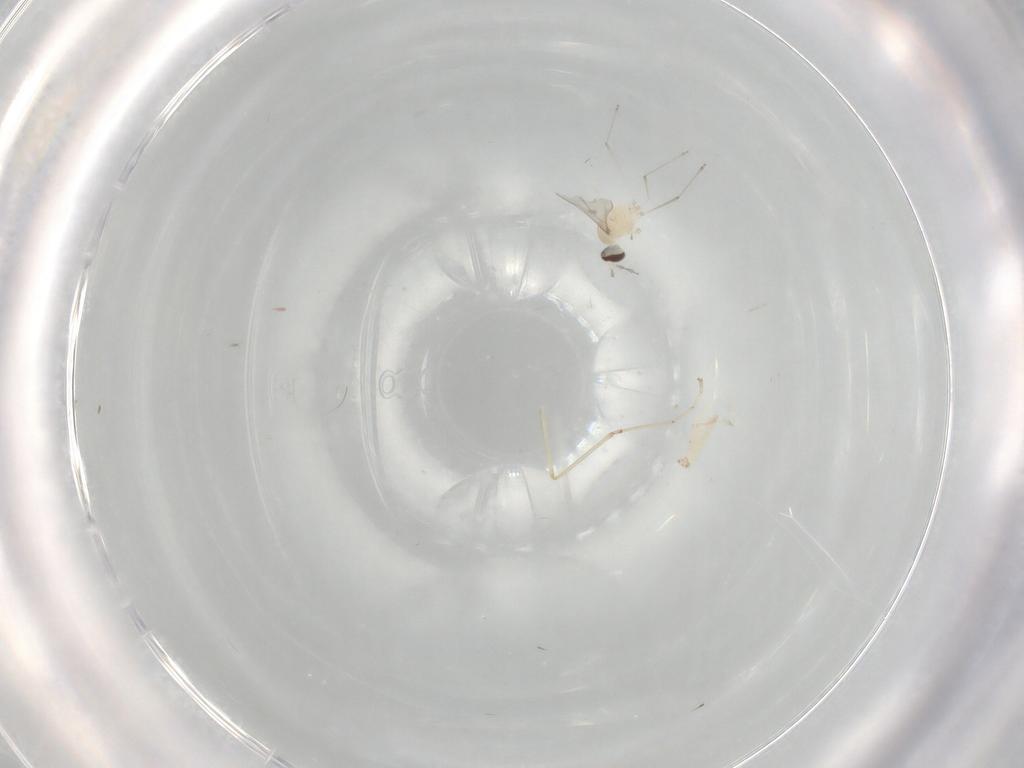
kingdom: Animalia
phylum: Arthropoda
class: Insecta
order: Diptera
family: Cecidomyiidae
